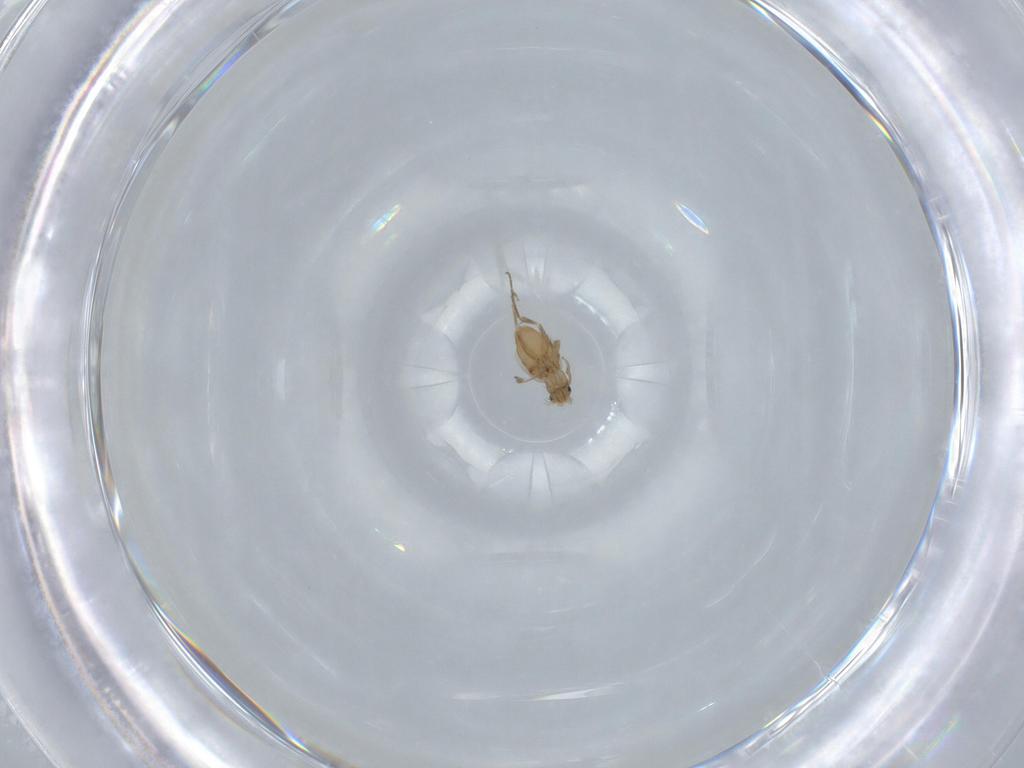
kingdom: Animalia
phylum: Arthropoda
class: Insecta
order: Diptera
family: Phoridae
